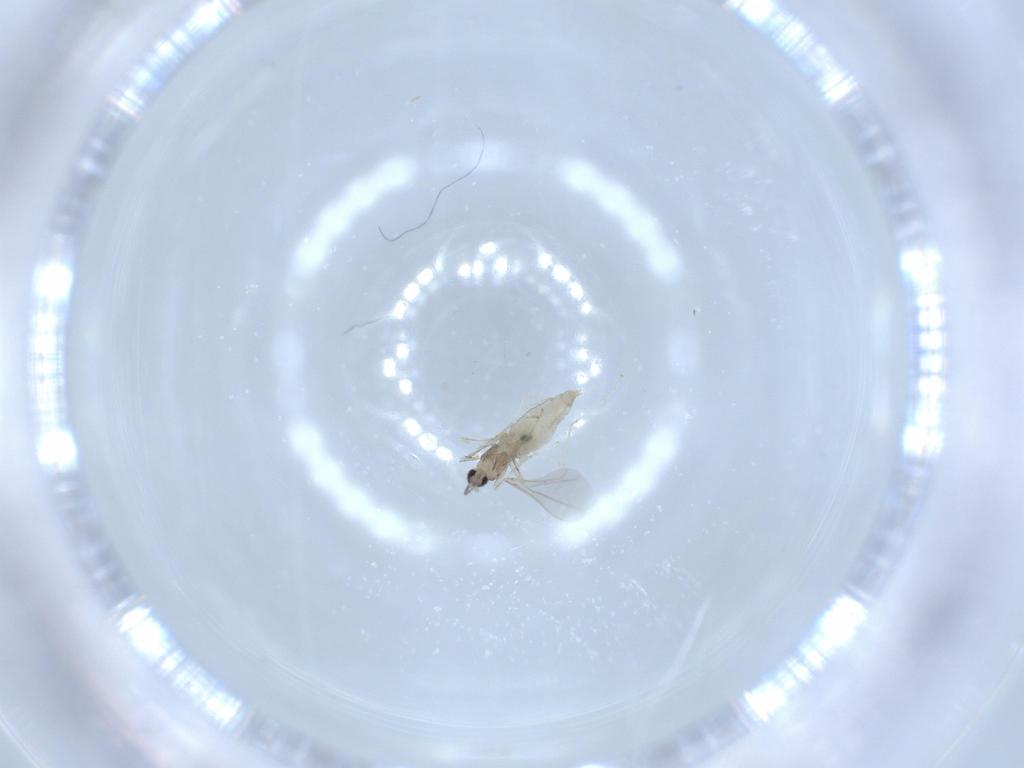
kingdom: Animalia
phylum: Arthropoda
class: Insecta
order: Diptera
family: Cecidomyiidae
